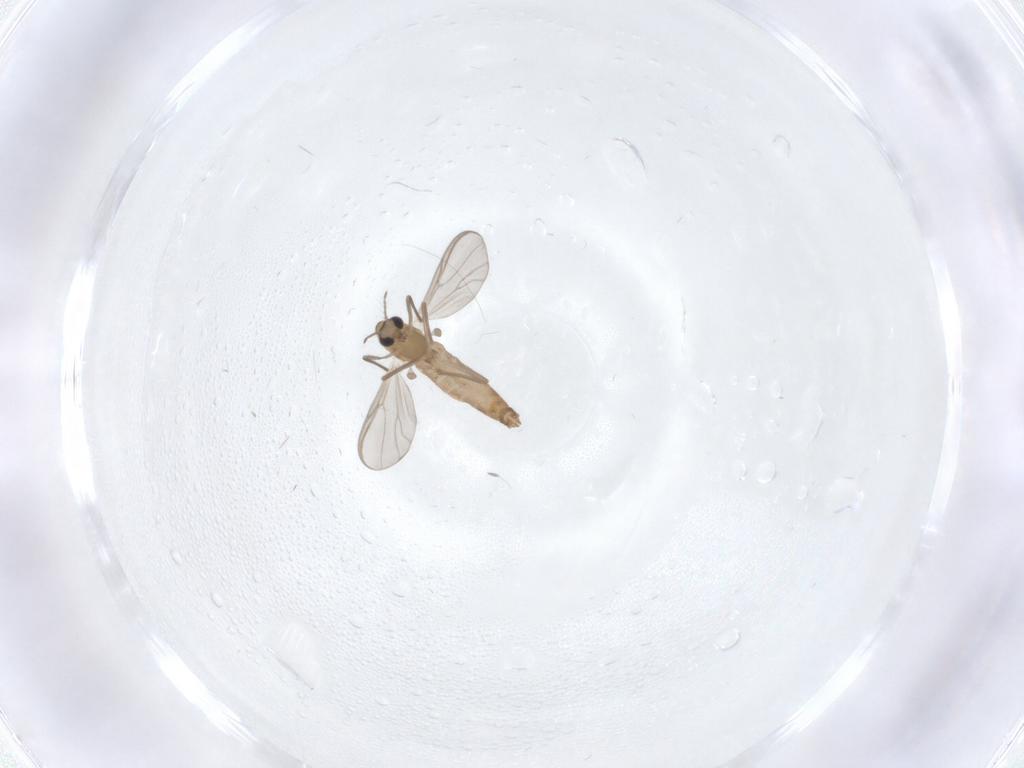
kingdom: Animalia
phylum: Arthropoda
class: Insecta
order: Diptera
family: Chironomidae
